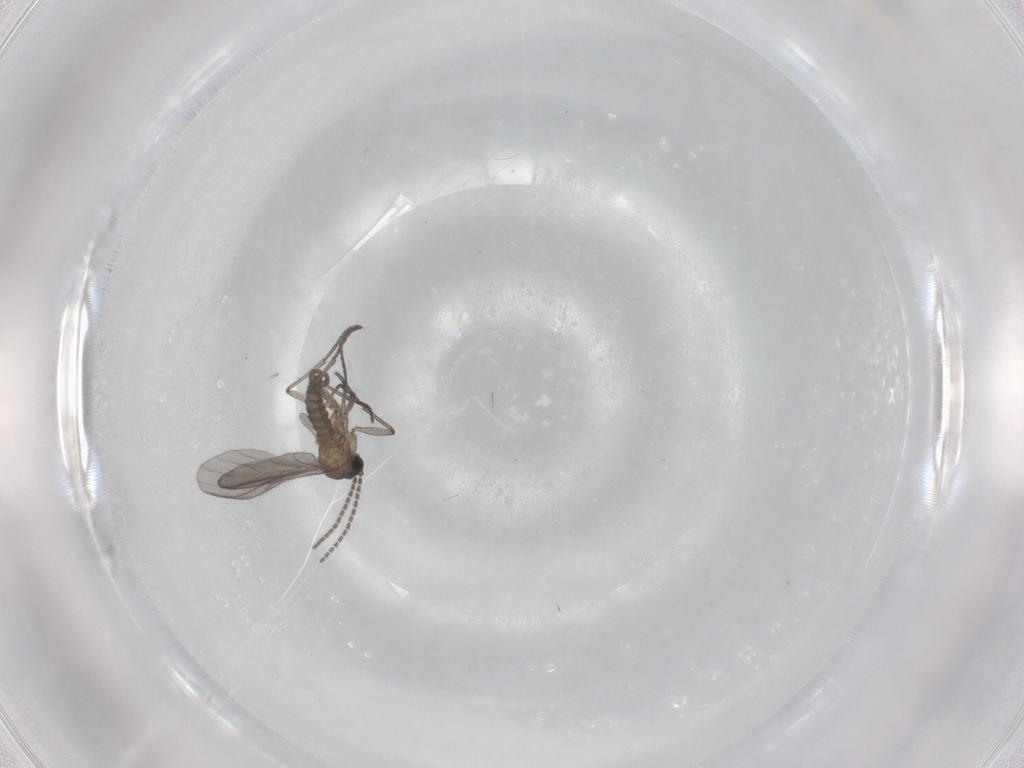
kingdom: Animalia
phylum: Arthropoda
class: Insecta
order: Diptera
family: Sciaridae
